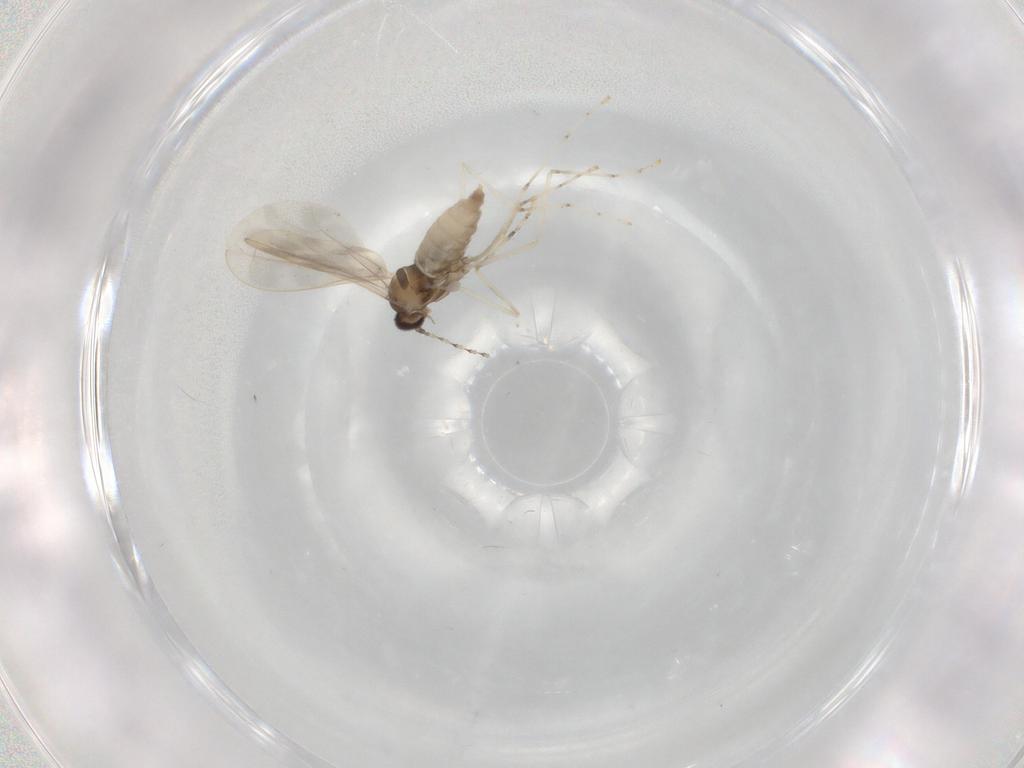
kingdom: Animalia
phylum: Arthropoda
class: Insecta
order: Diptera
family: Cecidomyiidae
